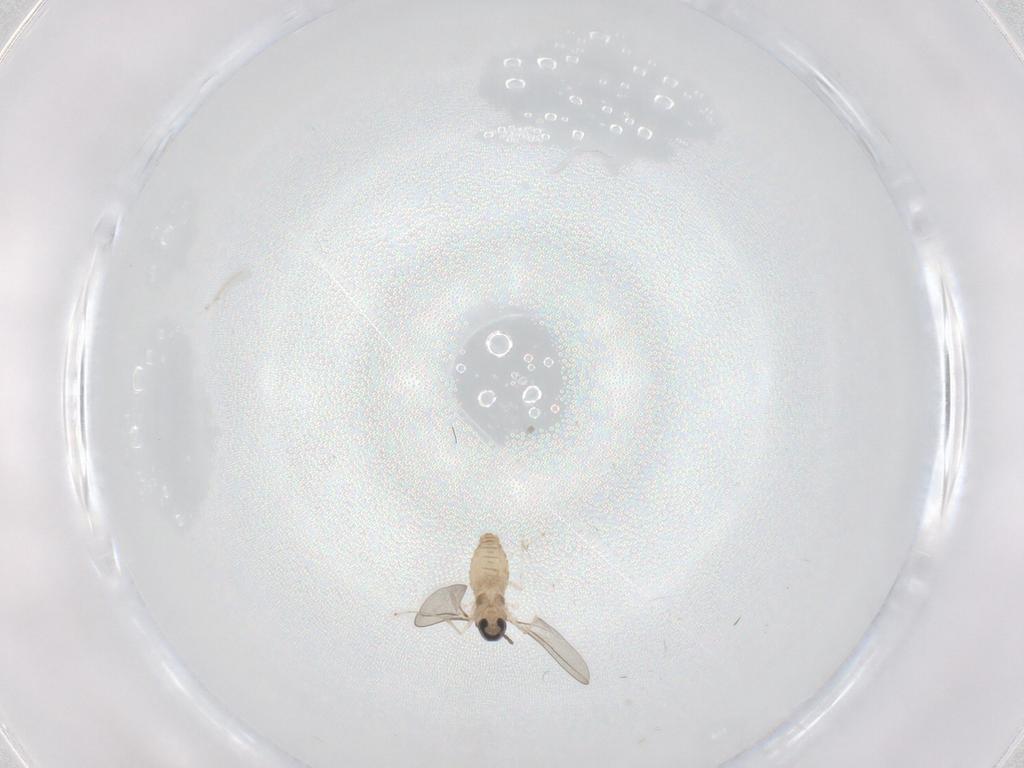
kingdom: Animalia
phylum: Arthropoda
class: Insecta
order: Diptera
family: Cecidomyiidae
